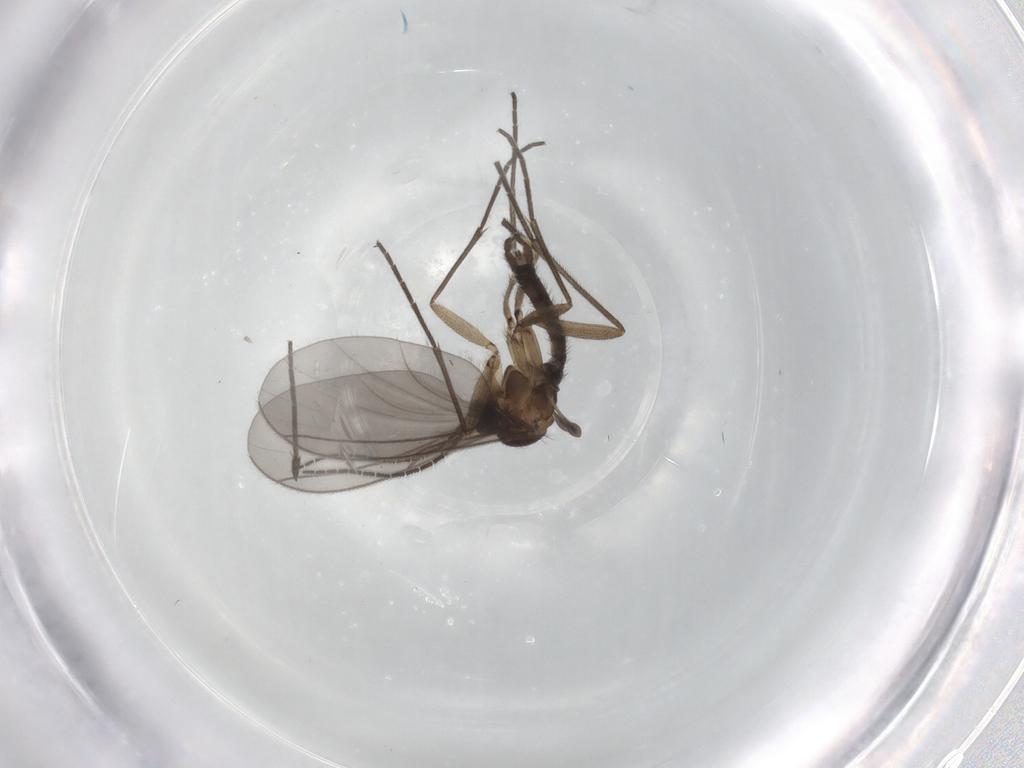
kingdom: Animalia
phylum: Arthropoda
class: Insecta
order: Diptera
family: Sciaridae
